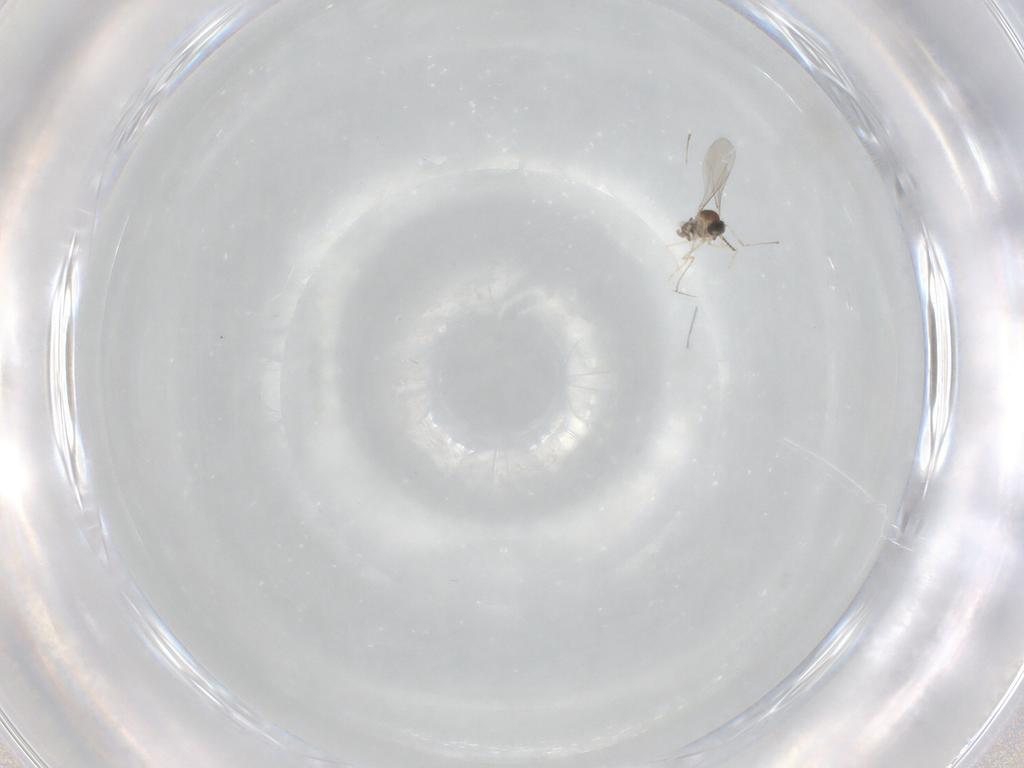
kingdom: Animalia
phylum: Arthropoda
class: Insecta
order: Diptera
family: Cecidomyiidae
